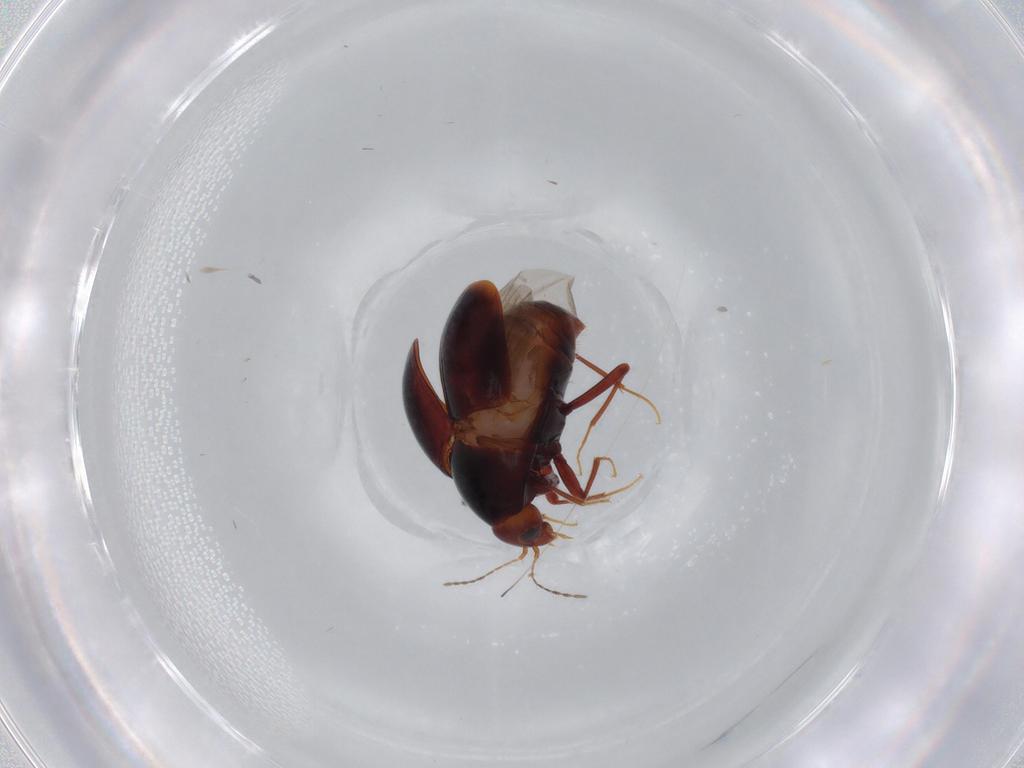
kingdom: Animalia
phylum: Arthropoda
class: Insecta
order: Coleoptera
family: Staphylinidae
